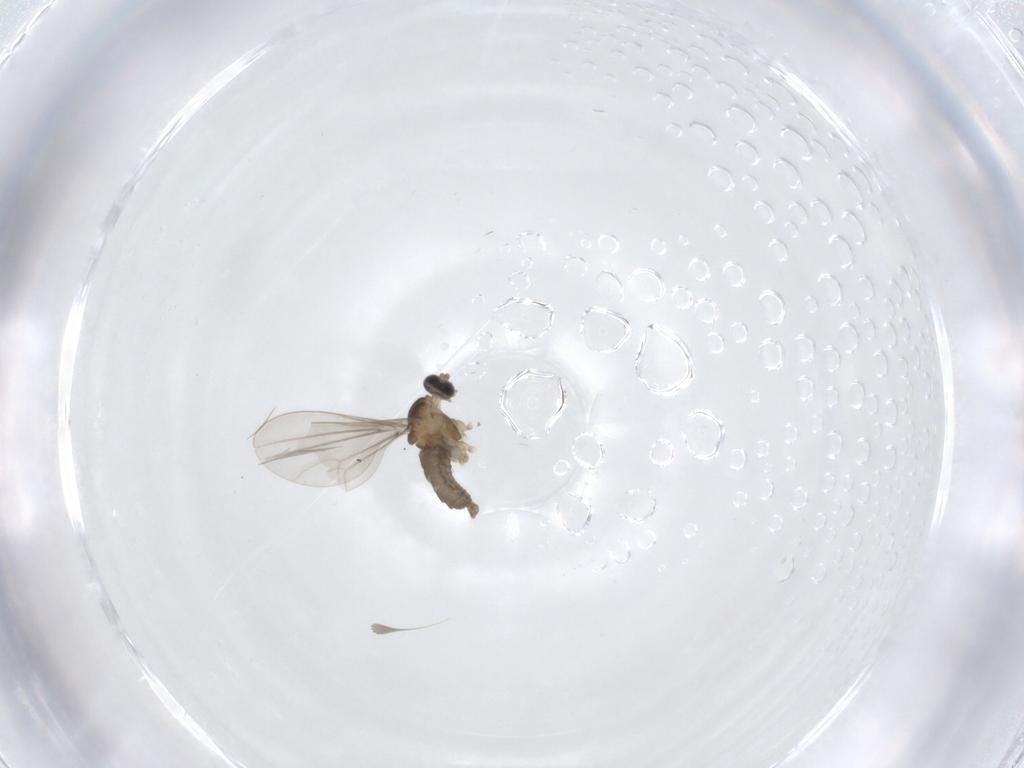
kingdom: Animalia
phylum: Arthropoda
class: Insecta
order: Diptera
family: Cecidomyiidae
